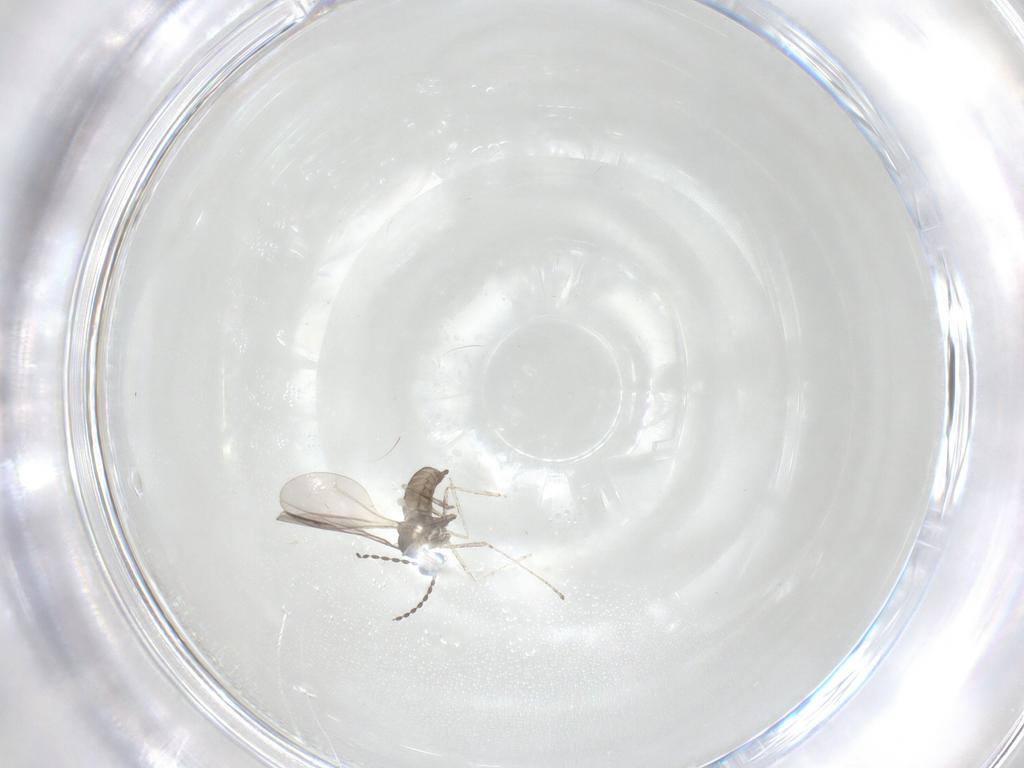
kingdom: Animalia
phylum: Arthropoda
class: Insecta
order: Diptera
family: Cecidomyiidae
